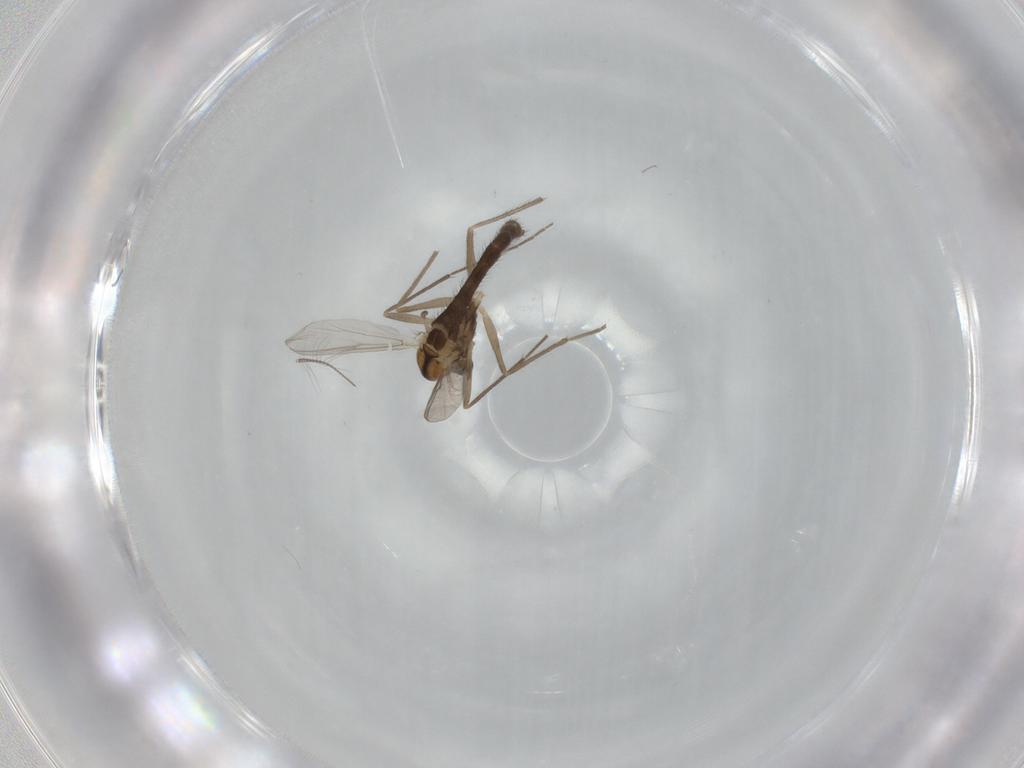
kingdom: Animalia
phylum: Arthropoda
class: Insecta
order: Diptera
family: Chironomidae
